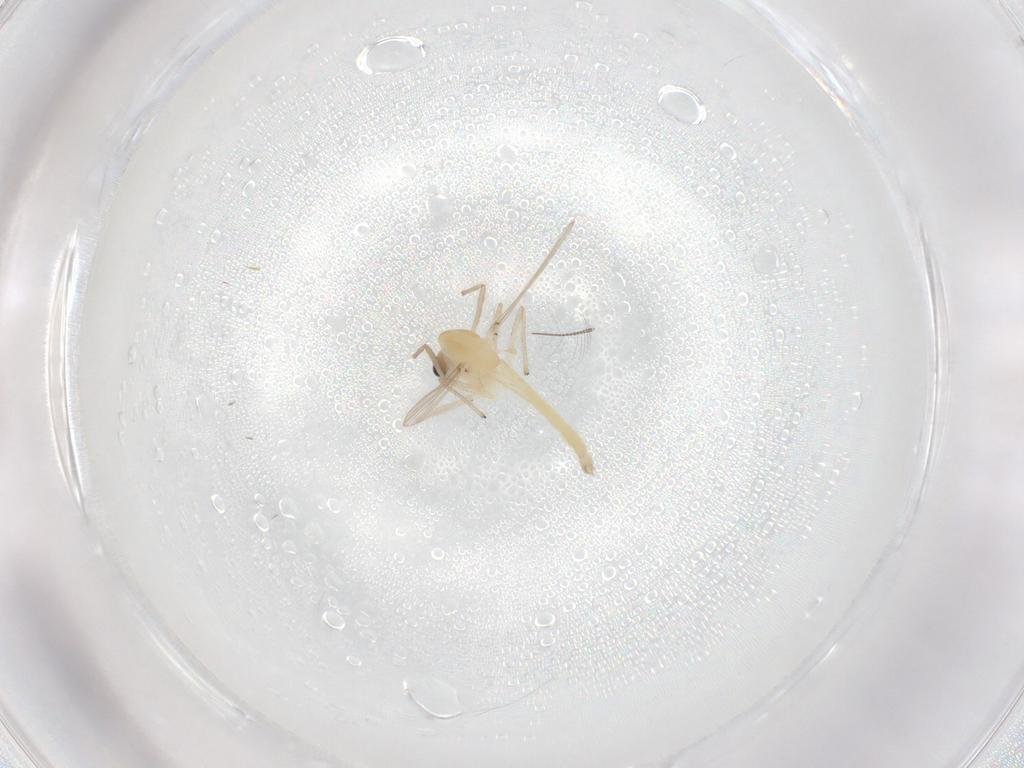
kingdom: Animalia
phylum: Arthropoda
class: Insecta
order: Diptera
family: Chironomidae
